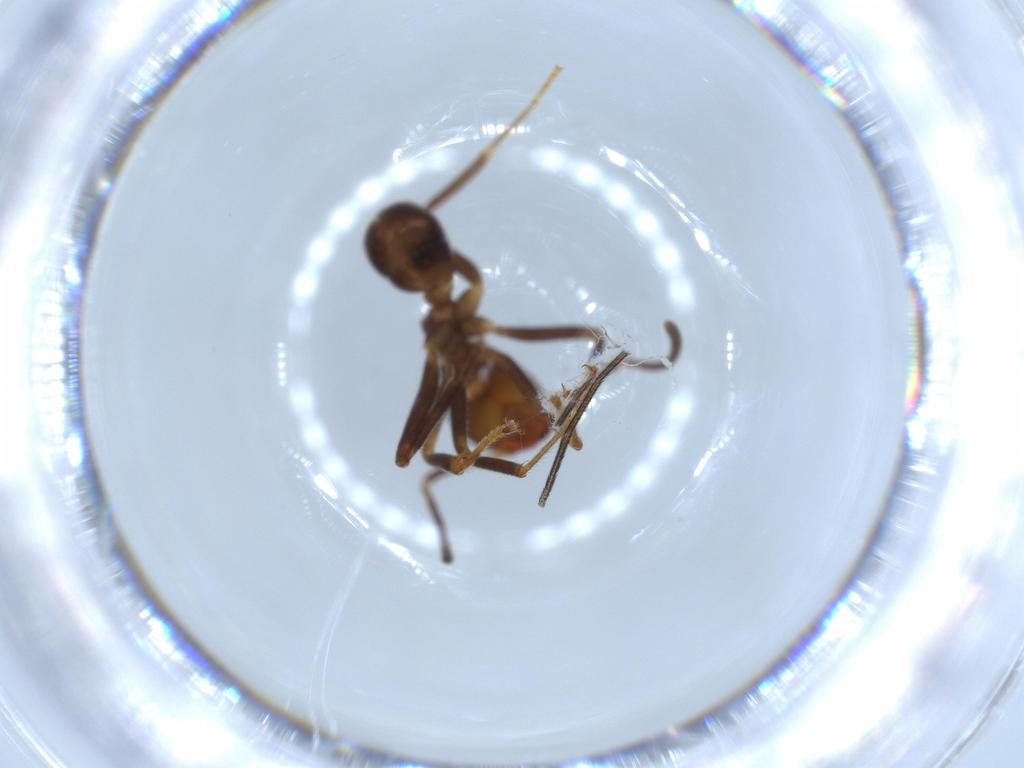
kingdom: Animalia
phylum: Arthropoda
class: Insecta
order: Hymenoptera
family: Formicidae
